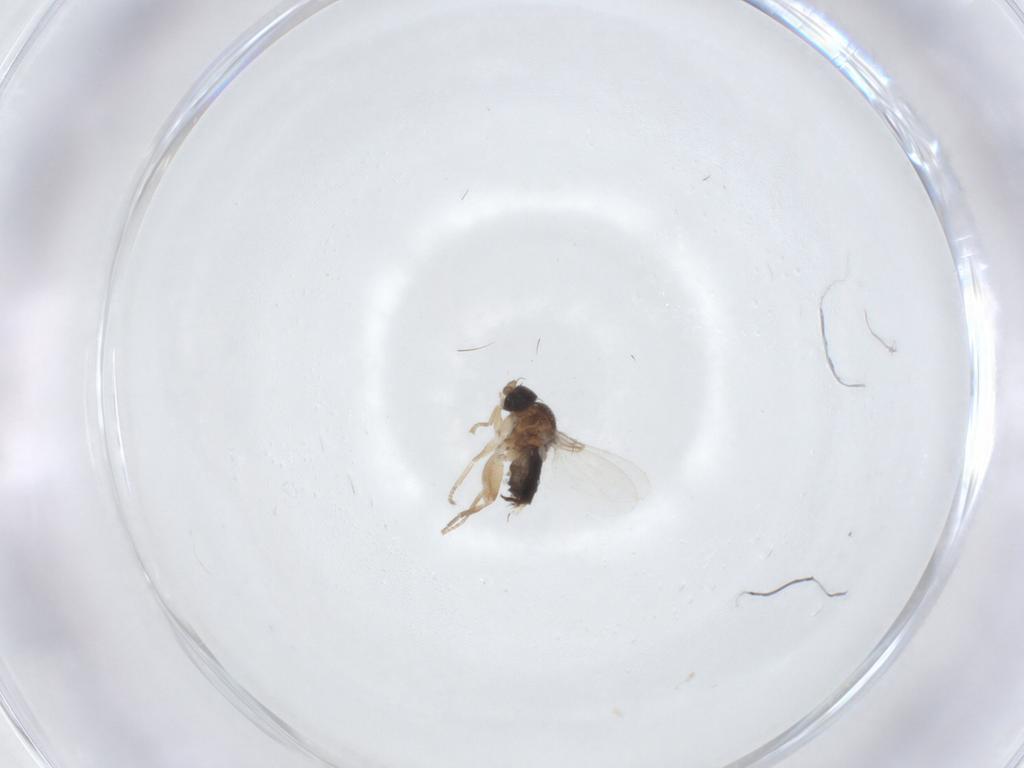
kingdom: Animalia
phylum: Arthropoda
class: Insecta
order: Diptera
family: Phoridae
